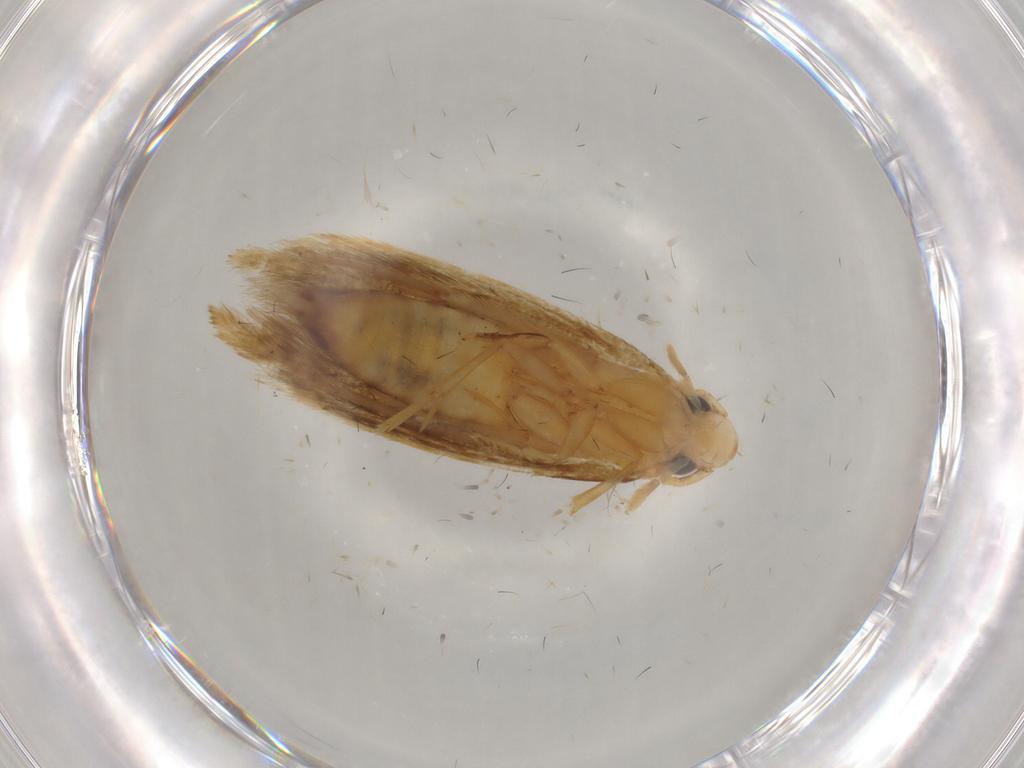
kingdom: Animalia
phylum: Arthropoda
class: Insecta
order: Lepidoptera
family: Tineidae
